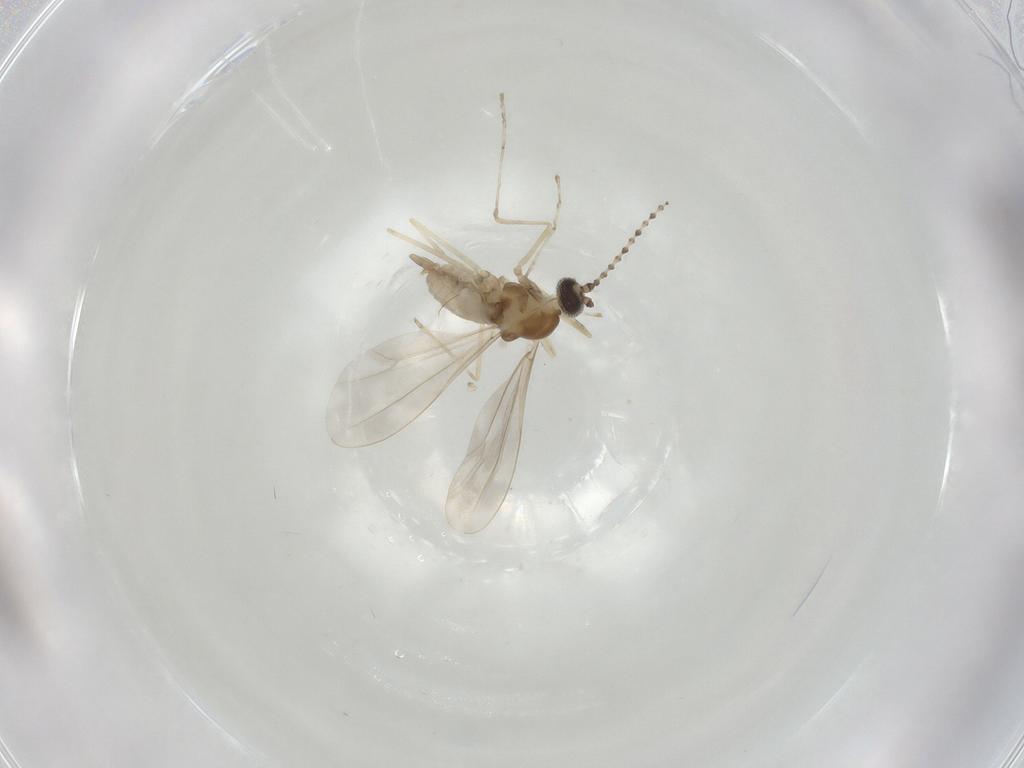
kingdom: Animalia
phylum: Arthropoda
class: Insecta
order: Diptera
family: Cecidomyiidae
